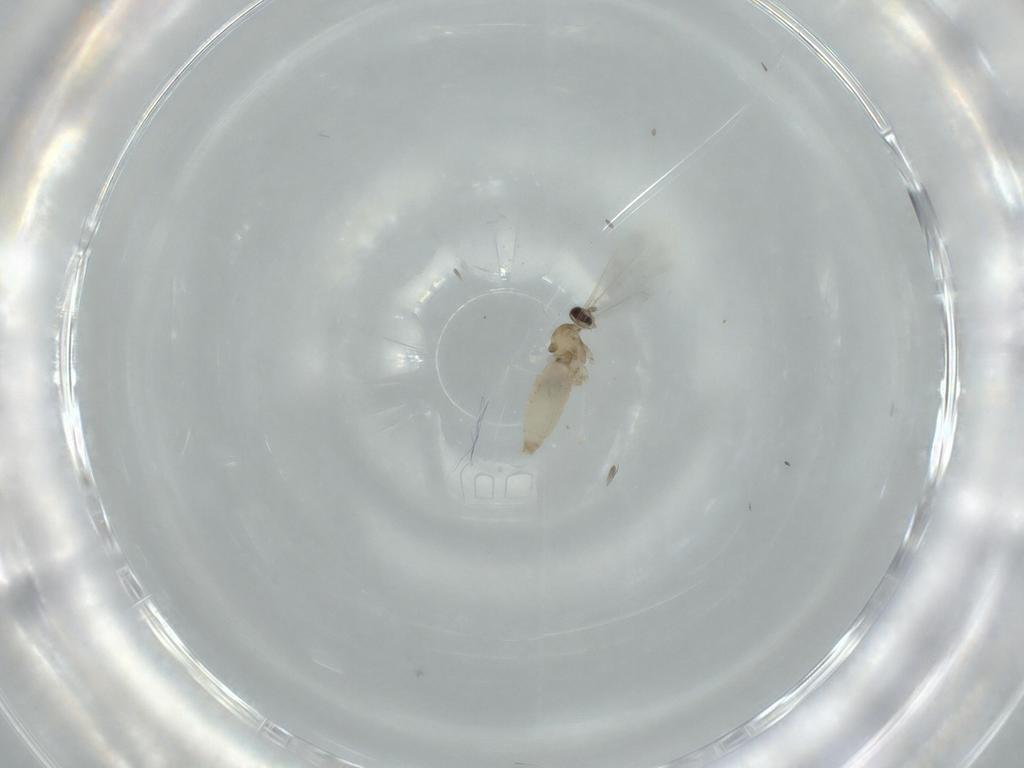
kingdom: Animalia
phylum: Arthropoda
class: Insecta
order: Diptera
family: Cecidomyiidae
